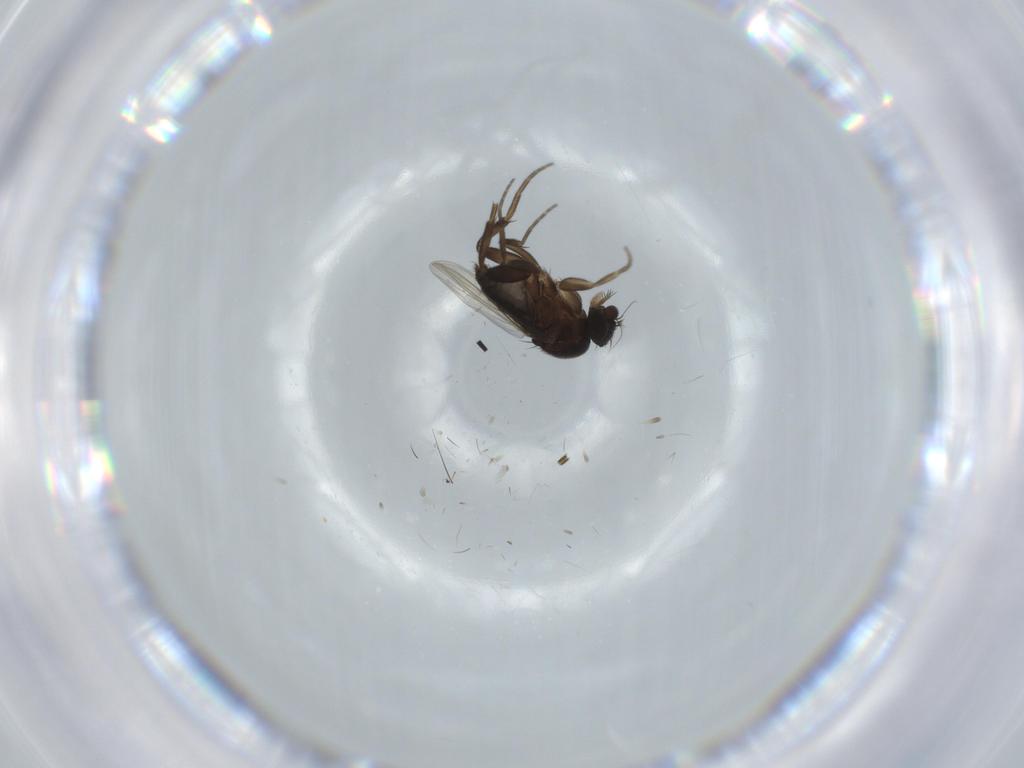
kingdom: Animalia
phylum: Arthropoda
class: Insecta
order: Diptera
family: Phoridae
